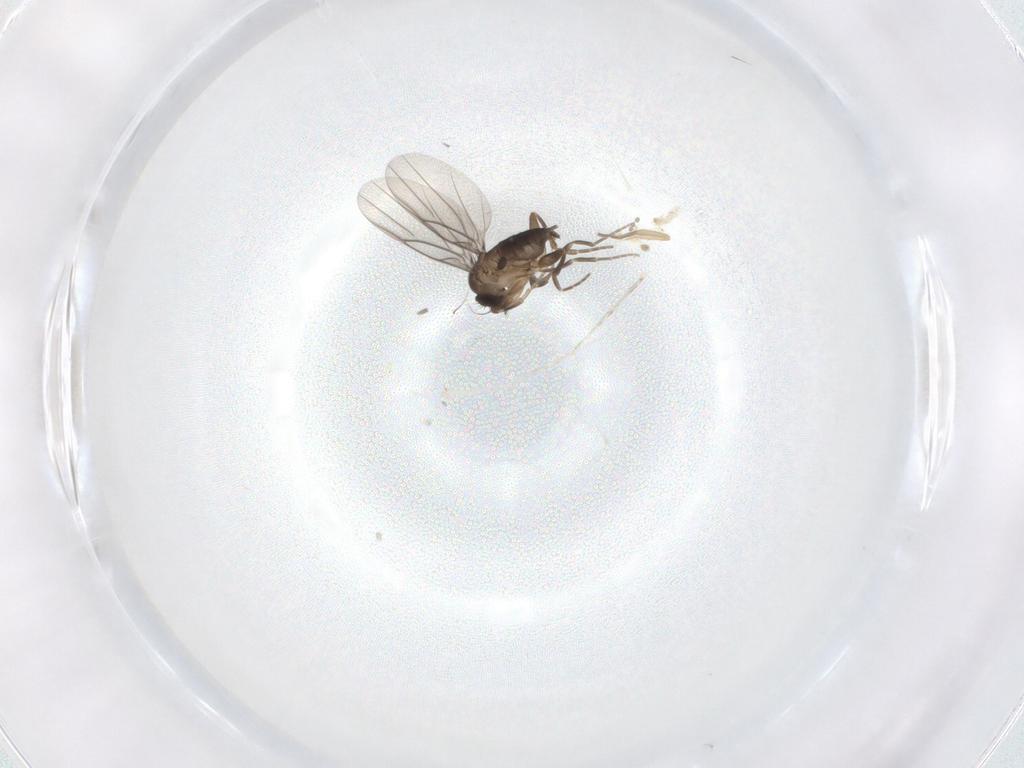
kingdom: Animalia
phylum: Arthropoda
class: Insecta
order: Diptera
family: Cecidomyiidae
